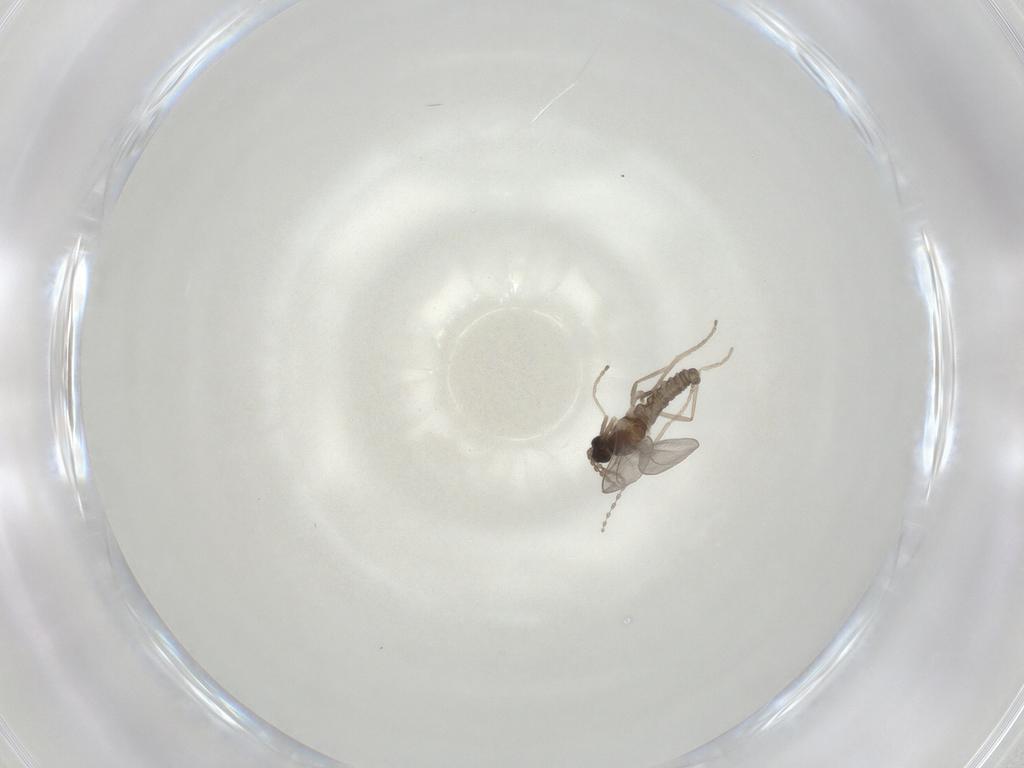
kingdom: Animalia
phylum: Arthropoda
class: Insecta
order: Diptera
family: Cecidomyiidae
